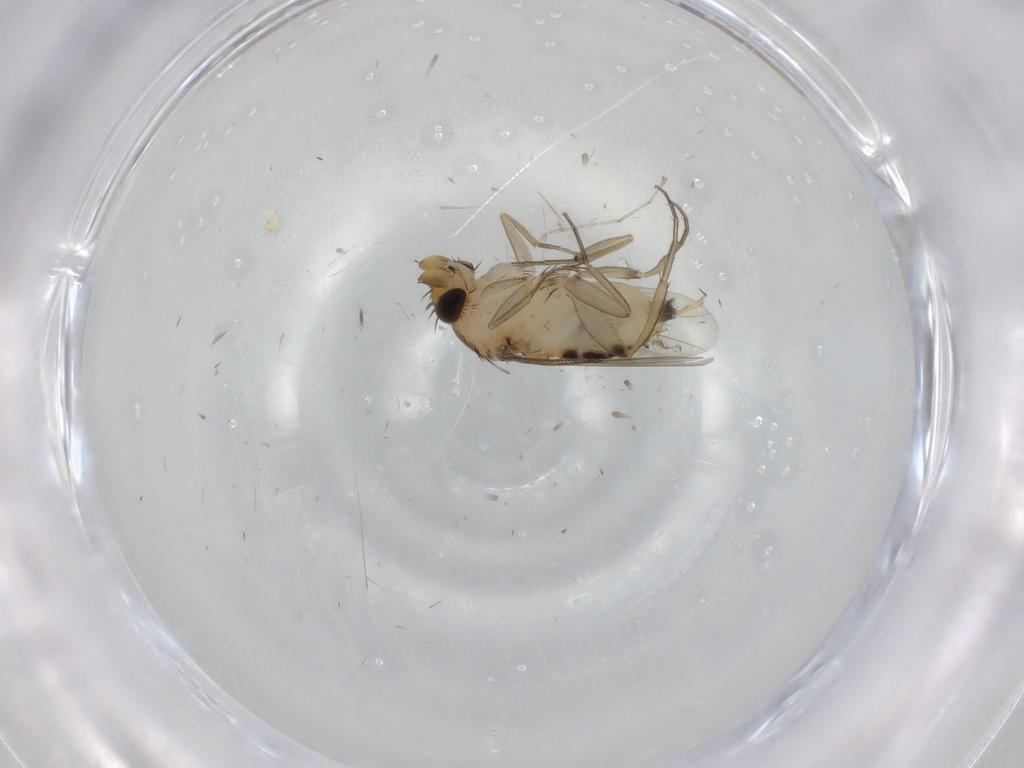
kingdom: Animalia
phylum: Arthropoda
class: Insecta
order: Diptera
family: Phoridae
